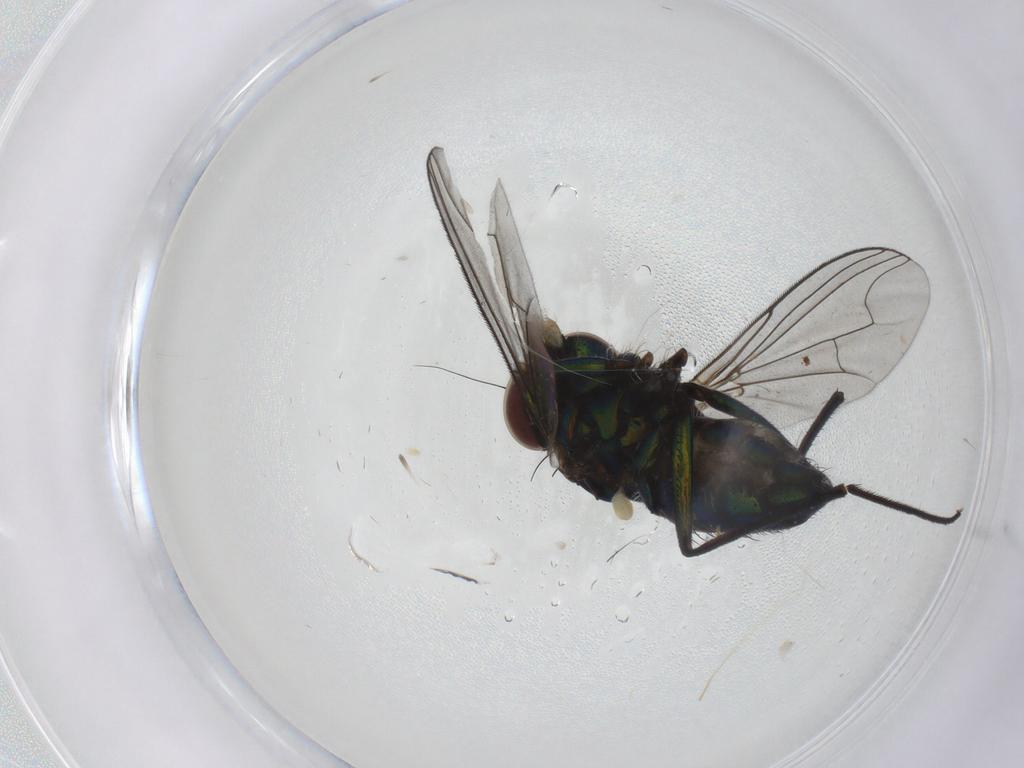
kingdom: Animalia
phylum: Arthropoda
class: Insecta
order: Diptera
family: Dolichopodidae
